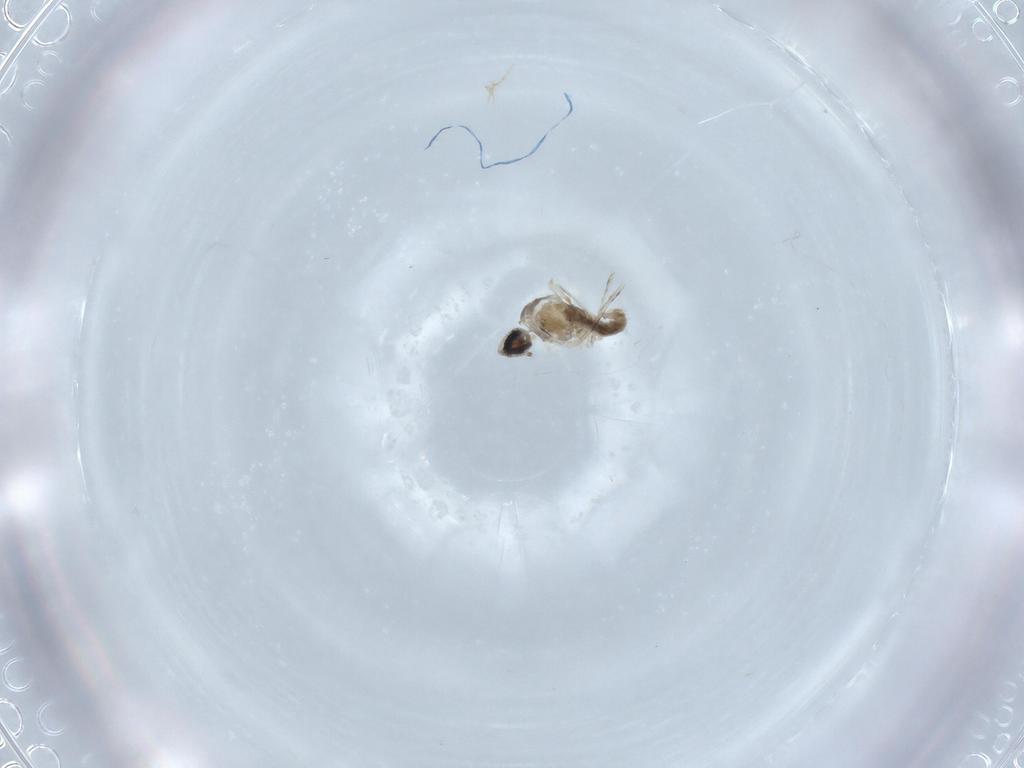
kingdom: Animalia
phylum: Arthropoda
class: Insecta
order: Diptera
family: Cecidomyiidae
